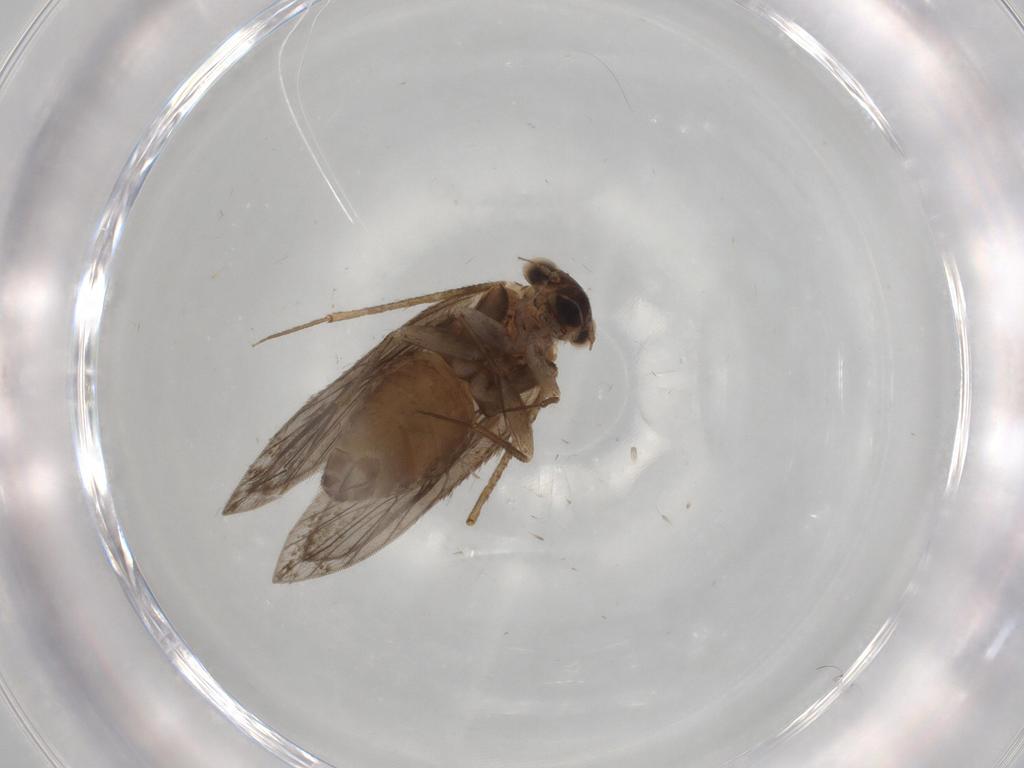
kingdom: Animalia
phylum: Arthropoda
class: Insecta
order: Psocodea
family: Lepidopsocidae
